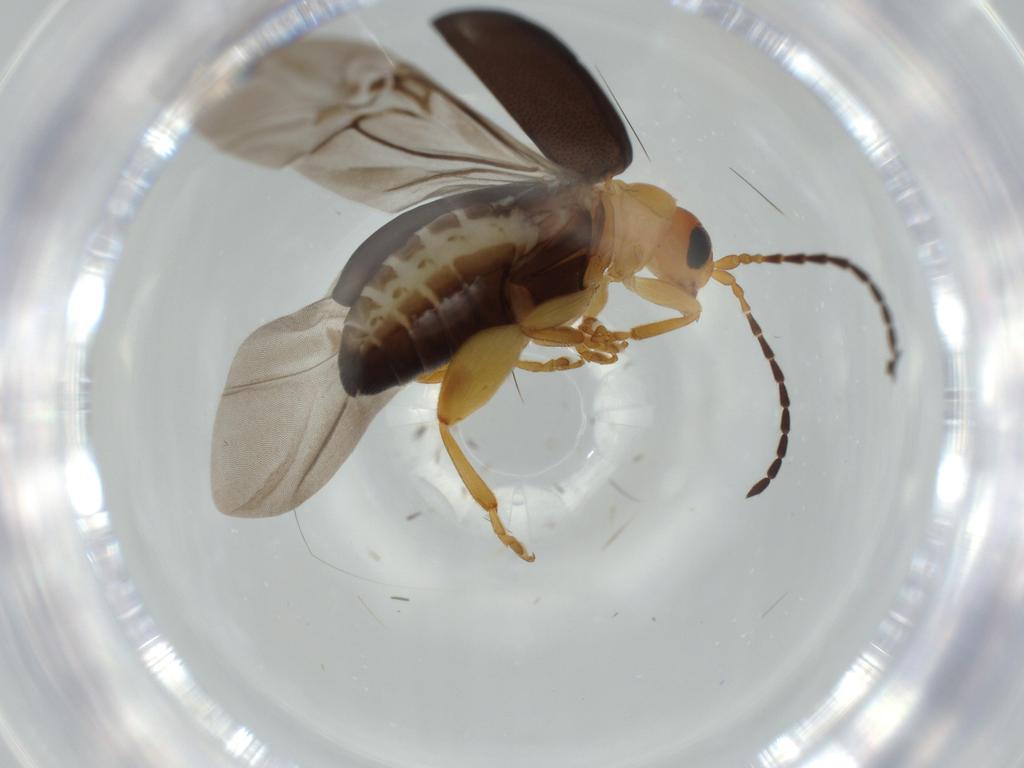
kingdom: Animalia
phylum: Arthropoda
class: Insecta
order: Coleoptera
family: Chrysomelidae
